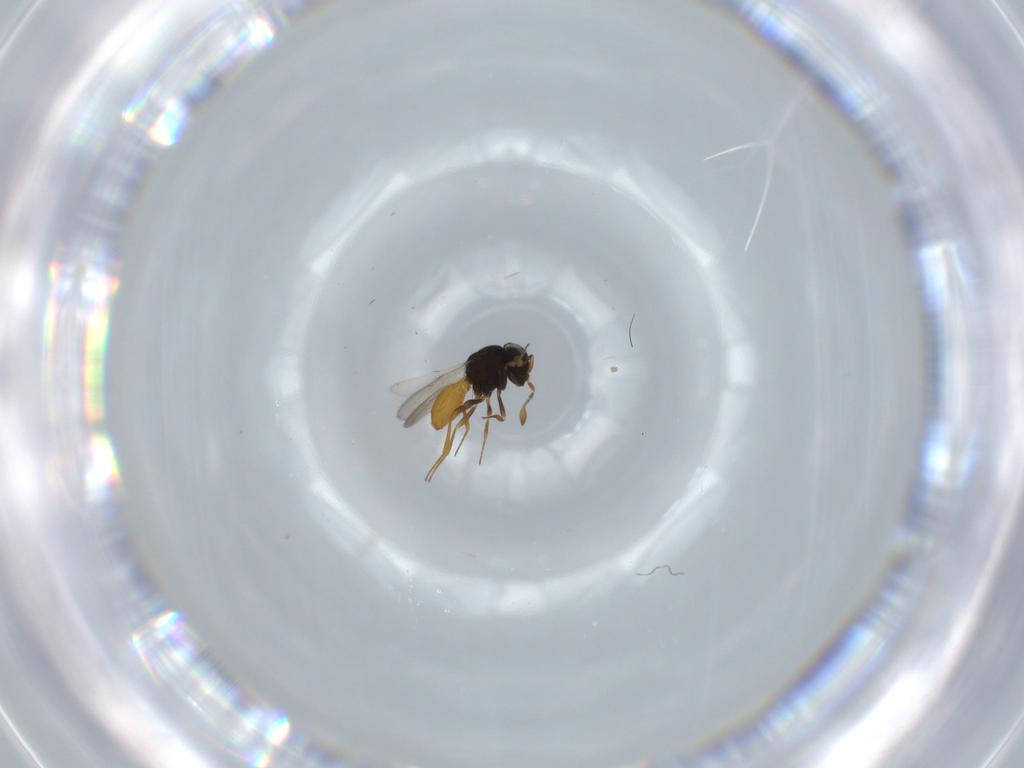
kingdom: Animalia
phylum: Arthropoda
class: Insecta
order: Hymenoptera
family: Scelionidae
